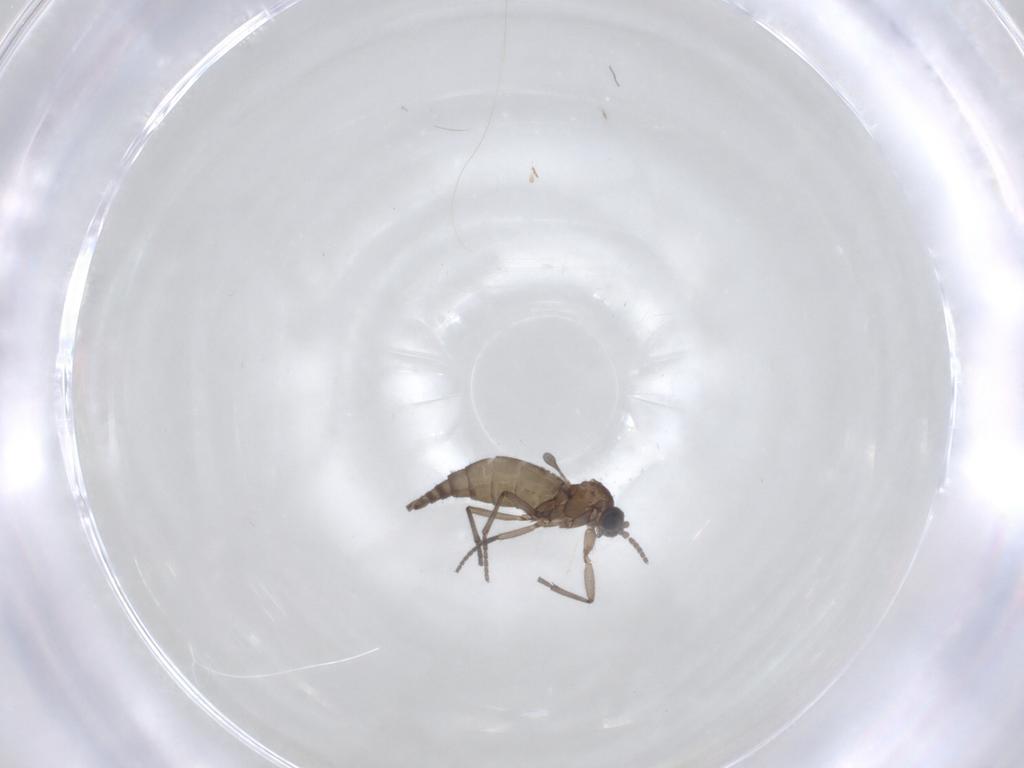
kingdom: Animalia
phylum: Arthropoda
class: Insecta
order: Diptera
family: Sciaridae
